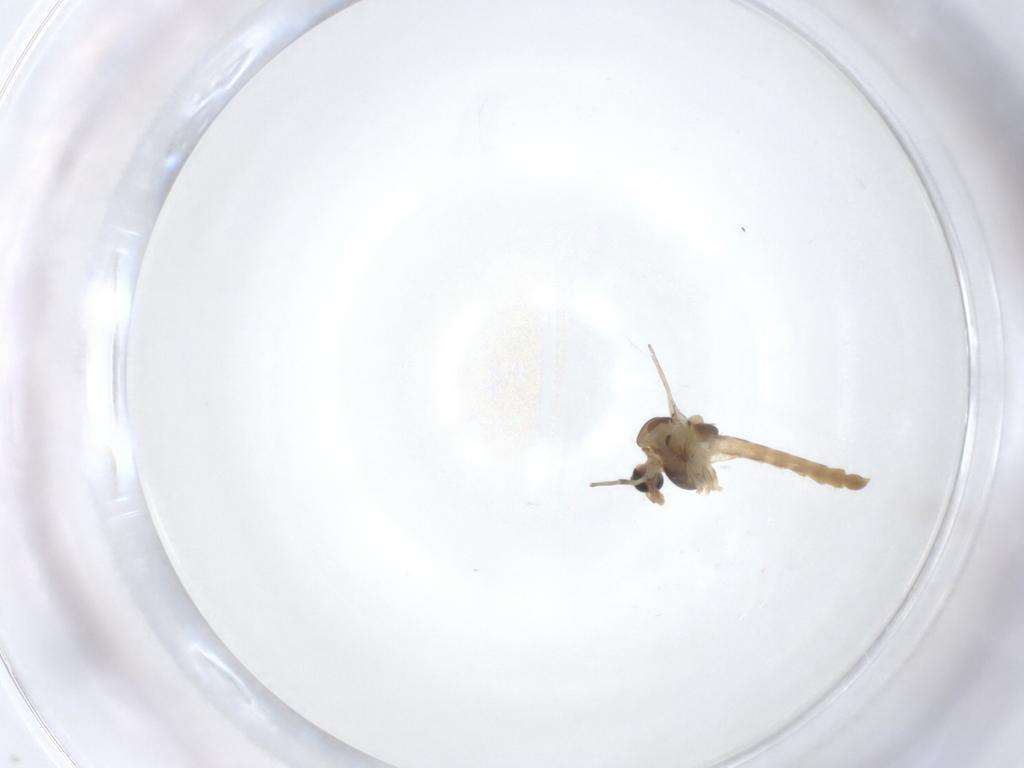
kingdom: Animalia
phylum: Arthropoda
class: Insecta
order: Diptera
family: Chironomidae
